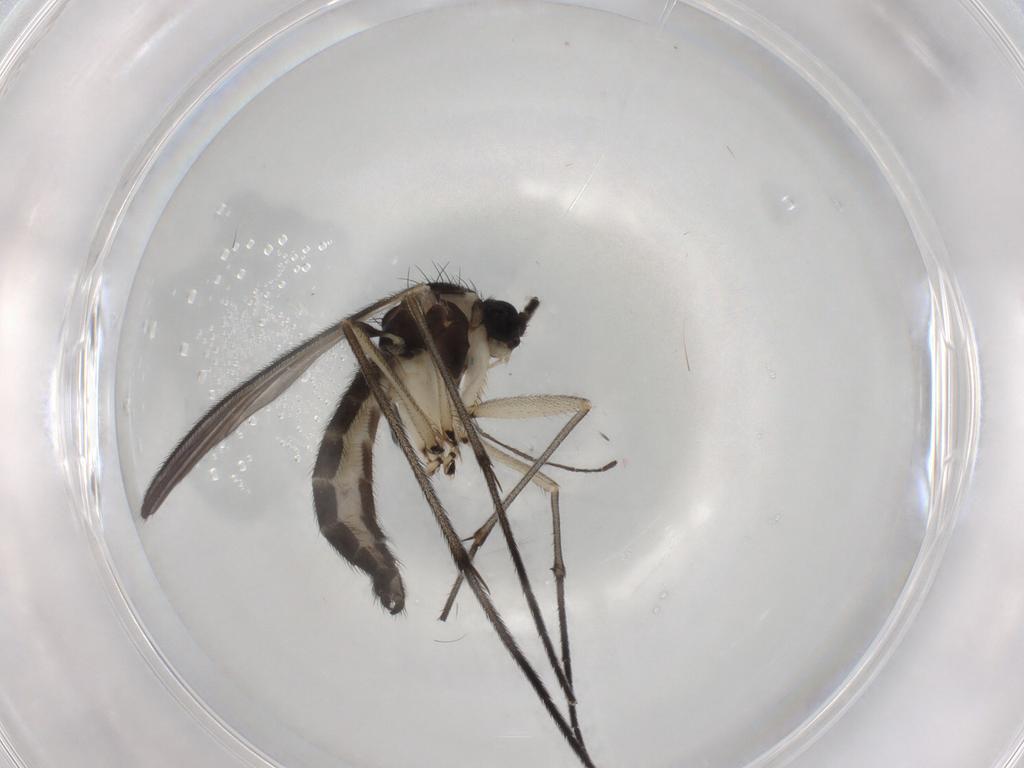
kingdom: Animalia
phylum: Arthropoda
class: Insecta
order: Diptera
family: Sciaridae
